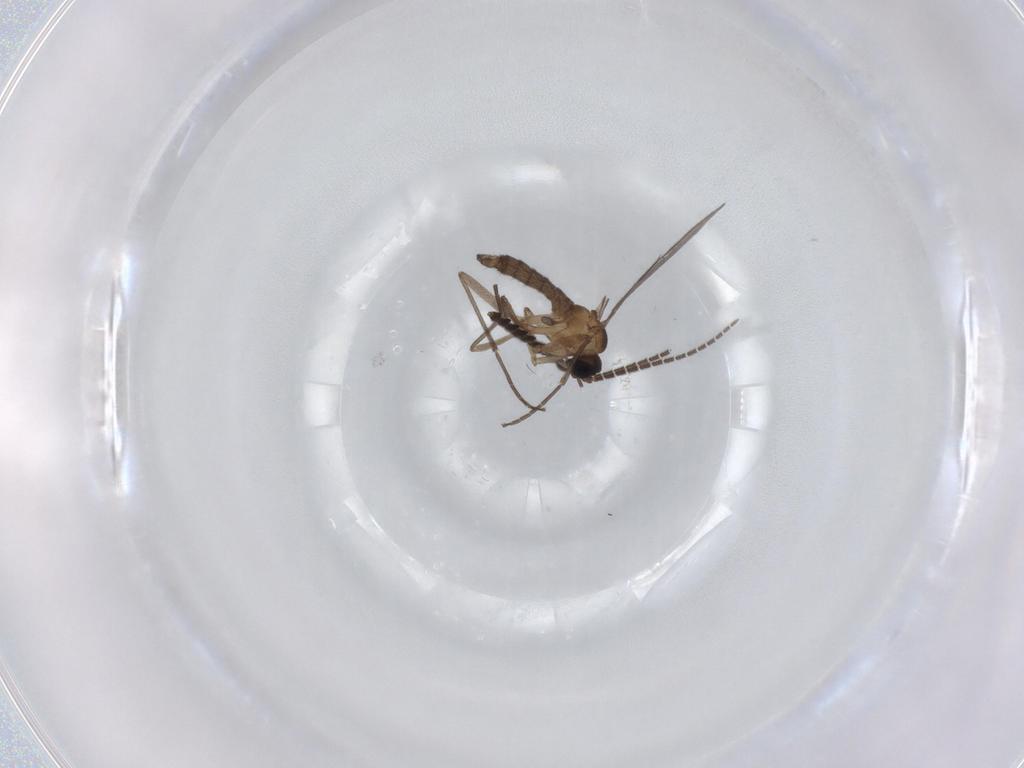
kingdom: Animalia
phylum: Arthropoda
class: Insecta
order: Diptera
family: Sciaridae
